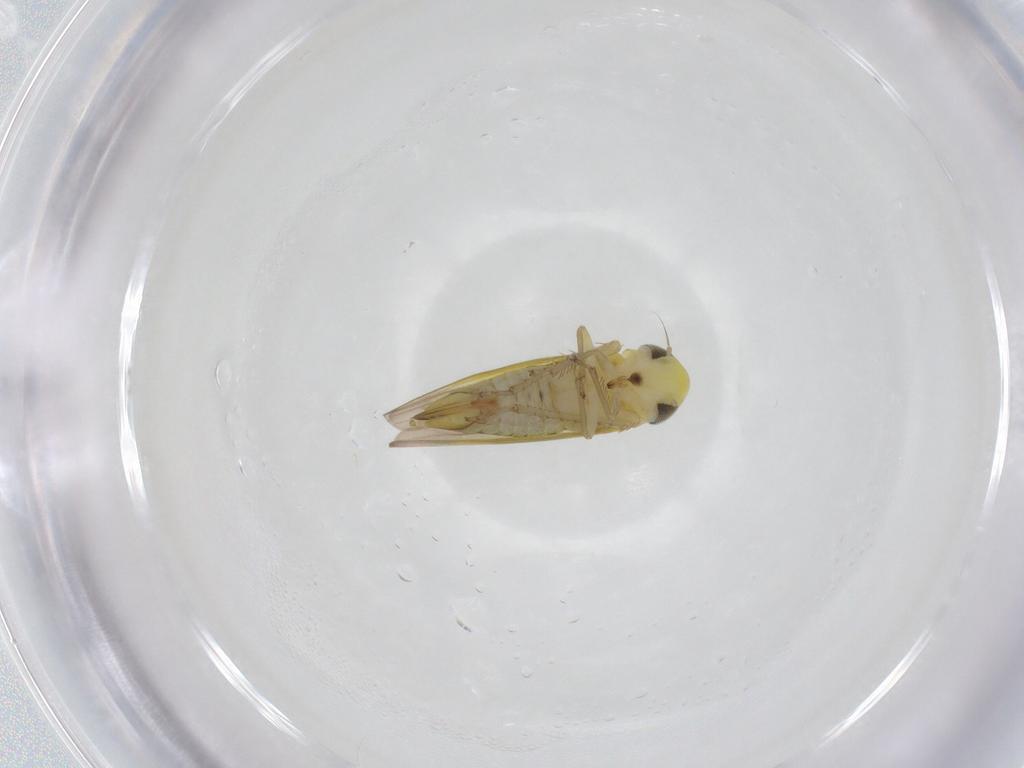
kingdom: Animalia
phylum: Arthropoda
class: Insecta
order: Hemiptera
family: Cicadellidae
